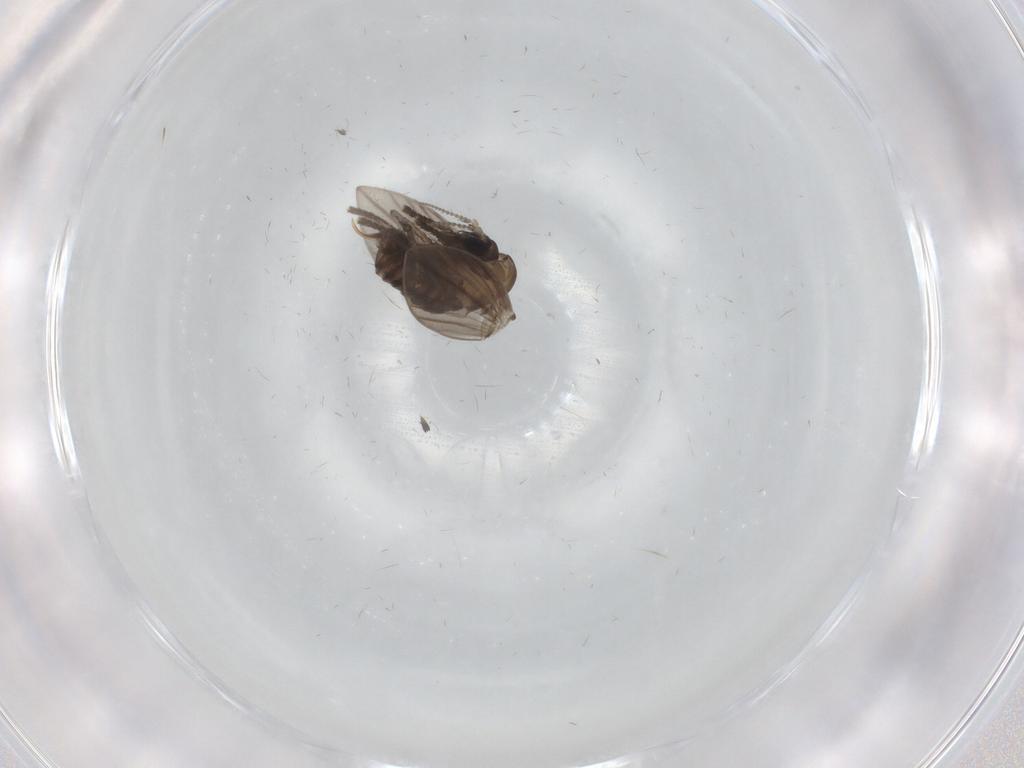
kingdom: Animalia
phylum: Arthropoda
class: Insecta
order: Diptera
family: Psychodidae
